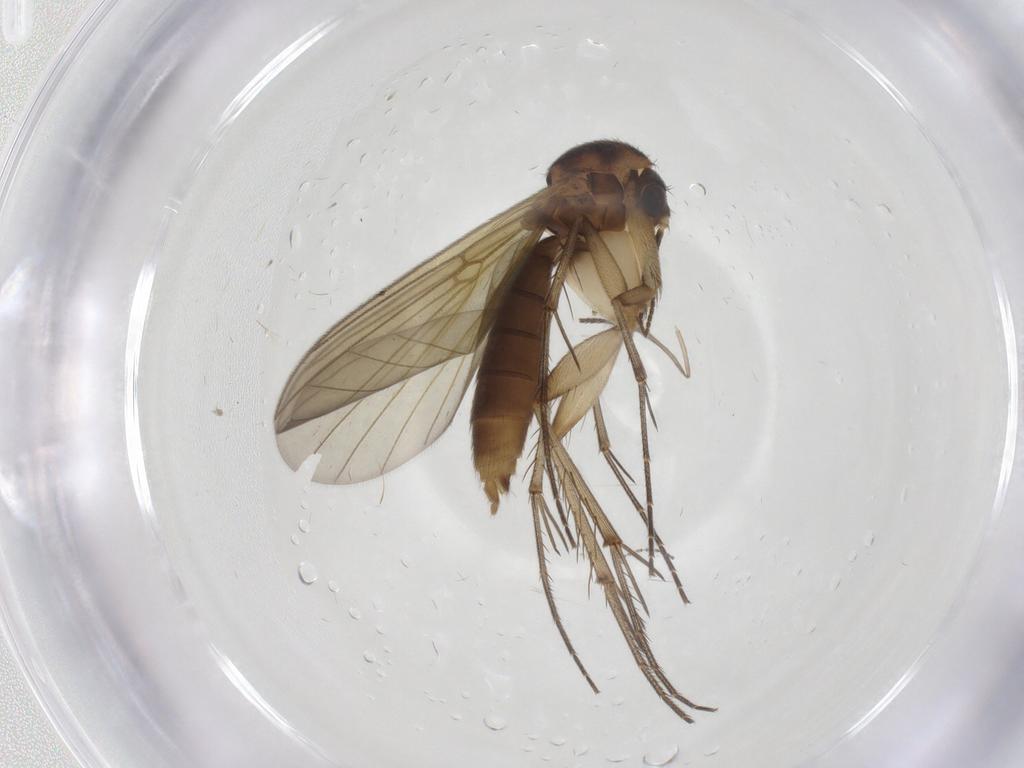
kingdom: Animalia
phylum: Arthropoda
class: Insecta
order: Diptera
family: Mycetophilidae
